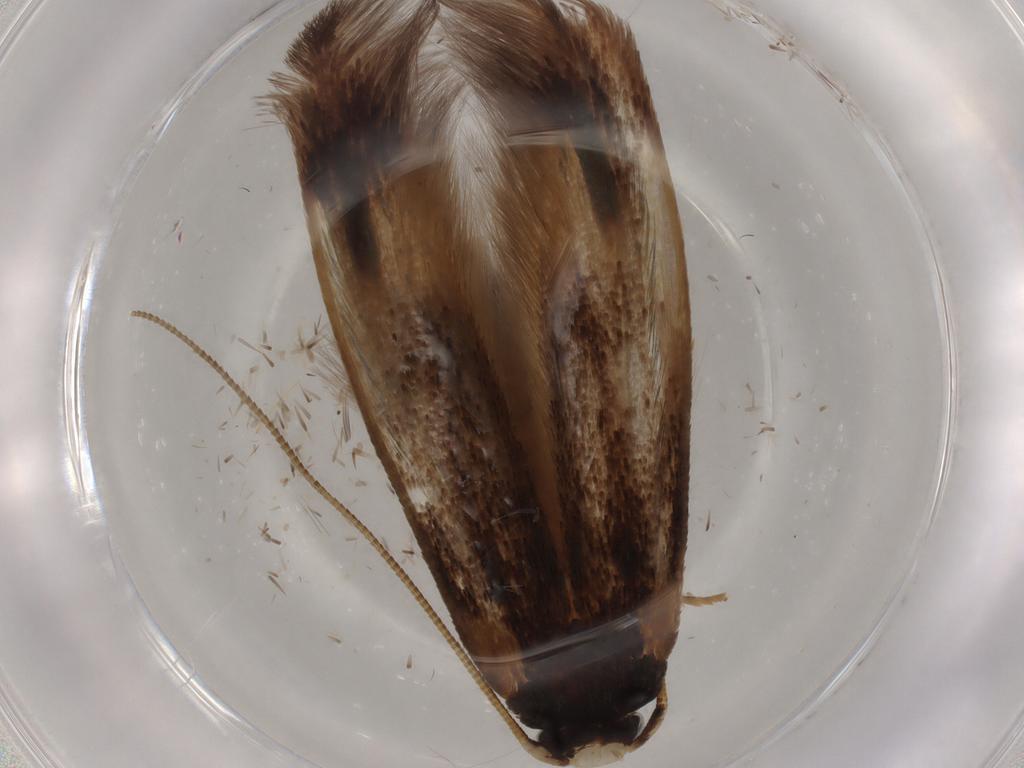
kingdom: Animalia
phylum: Arthropoda
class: Insecta
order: Lepidoptera
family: Tineidae
